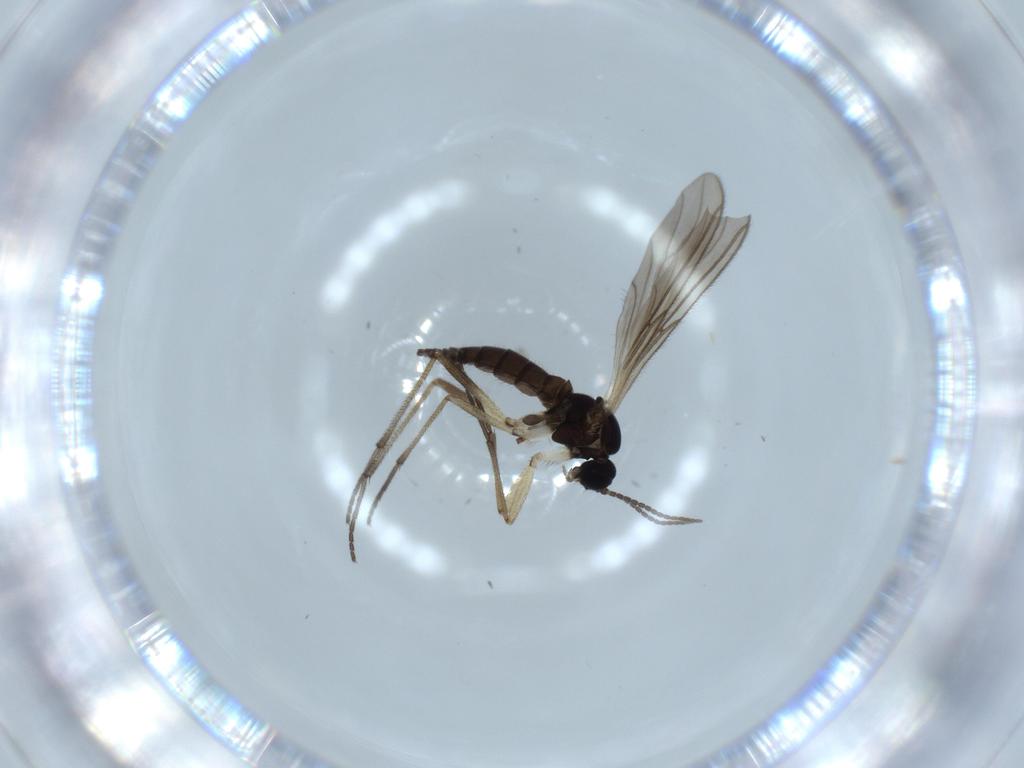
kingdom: Animalia
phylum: Arthropoda
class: Insecta
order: Diptera
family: Sciaridae
